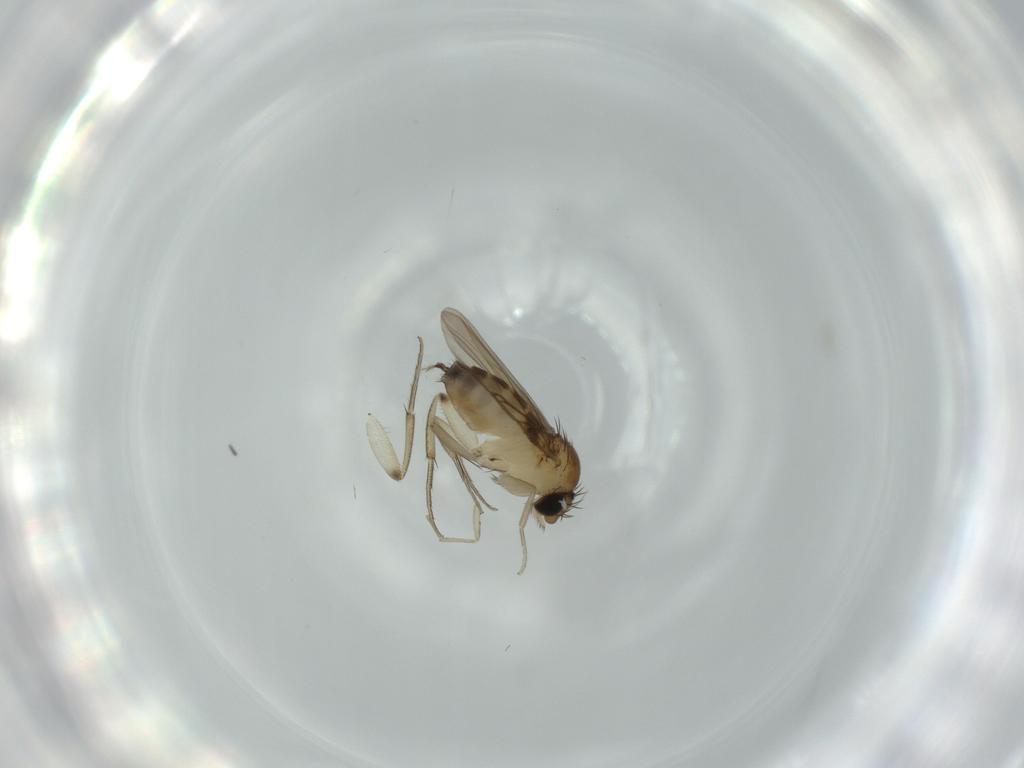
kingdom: Animalia
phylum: Arthropoda
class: Insecta
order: Diptera
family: Phoridae
